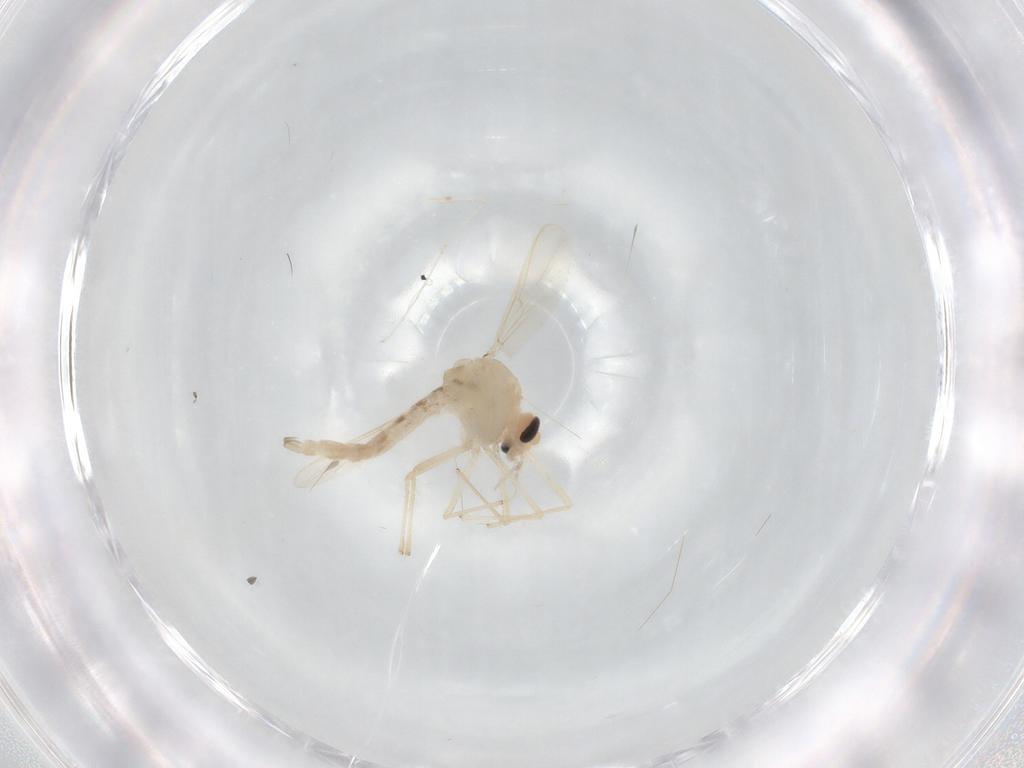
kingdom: Animalia
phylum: Arthropoda
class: Insecta
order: Diptera
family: Chironomidae
